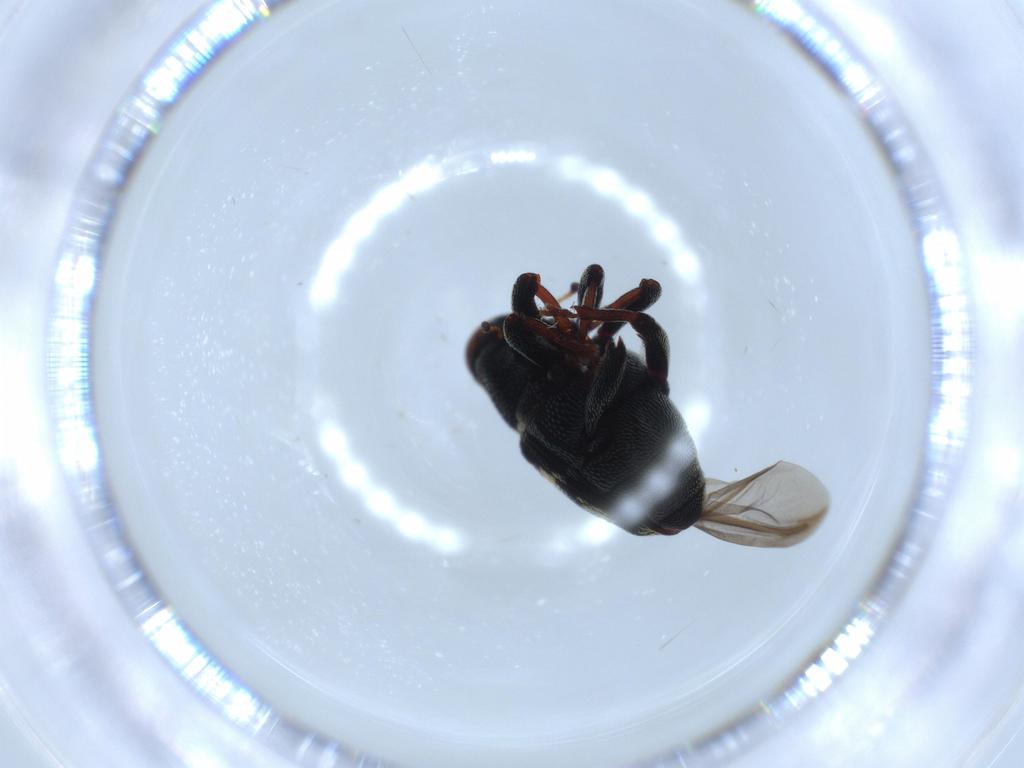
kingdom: Animalia
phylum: Arthropoda
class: Insecta
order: Coleoptera
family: Curculionidae
